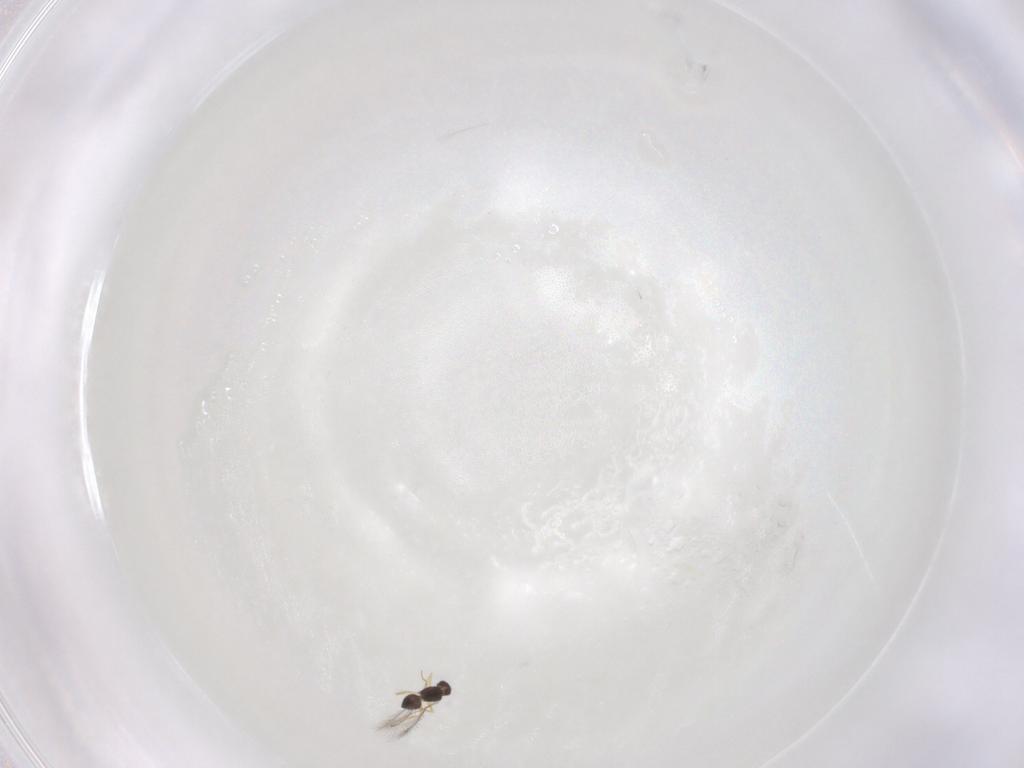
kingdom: Animalia
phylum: Arthropoda
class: Insecta
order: Hymenoptera
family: Mymaridae
